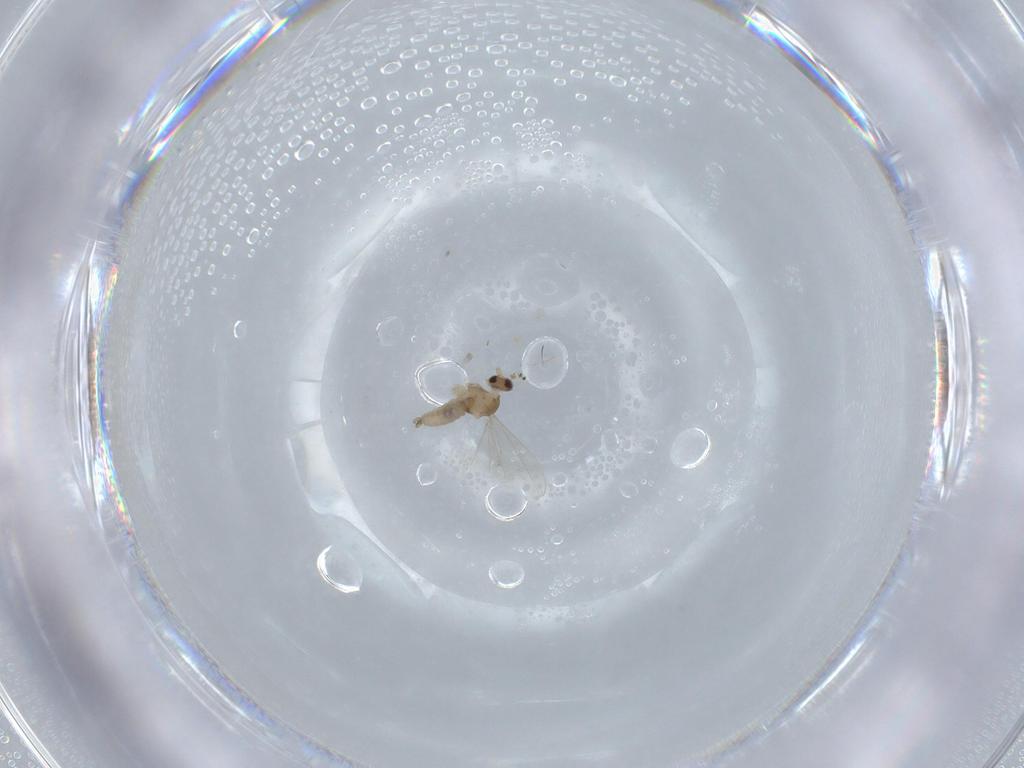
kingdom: Animalia
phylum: Arthropoda
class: Insecta
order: Diptera
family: Cecidomyiidae
